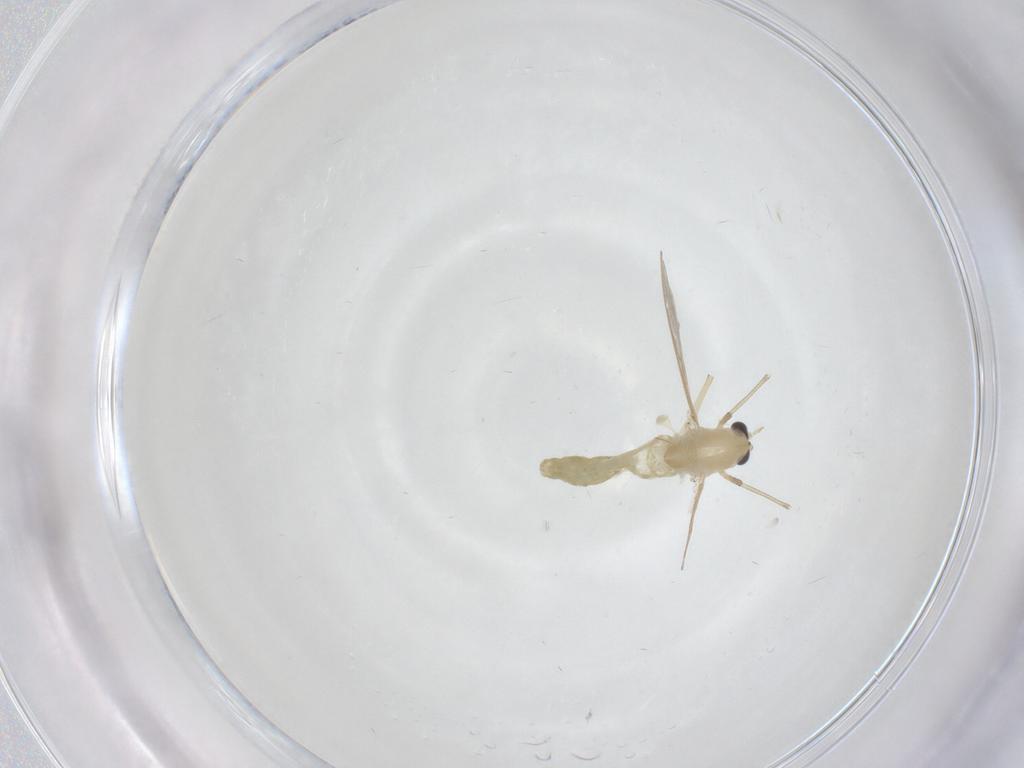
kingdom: Animalia
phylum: Arthropoda
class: Insecta
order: Diptera
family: Chironomidae
